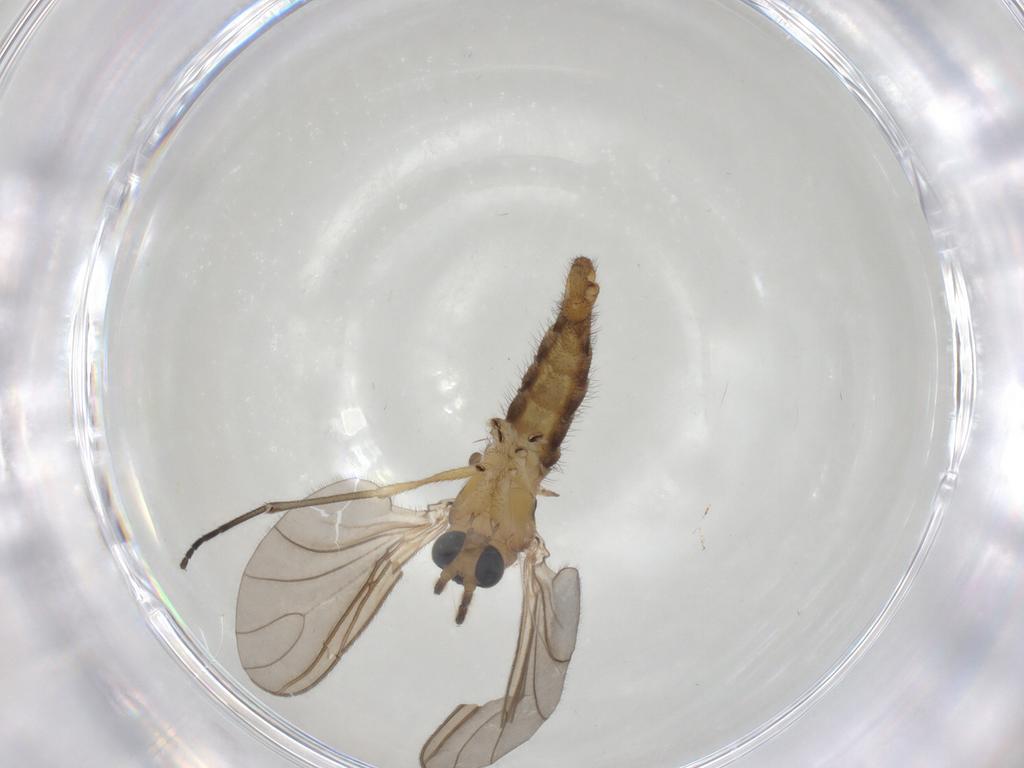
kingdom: Animalia
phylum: Arthropoda
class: Insecta
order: Diptera
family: Sciaridae
